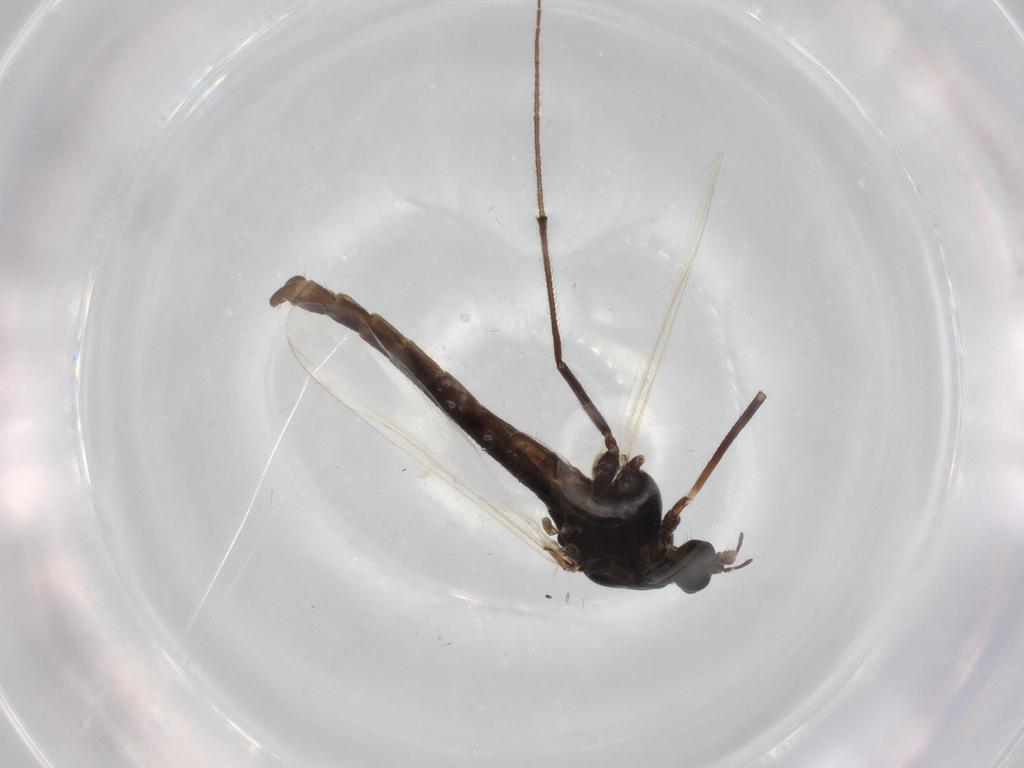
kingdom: Animalia
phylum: Arthropoda
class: Insecta
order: Diptera
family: Chironomidae
